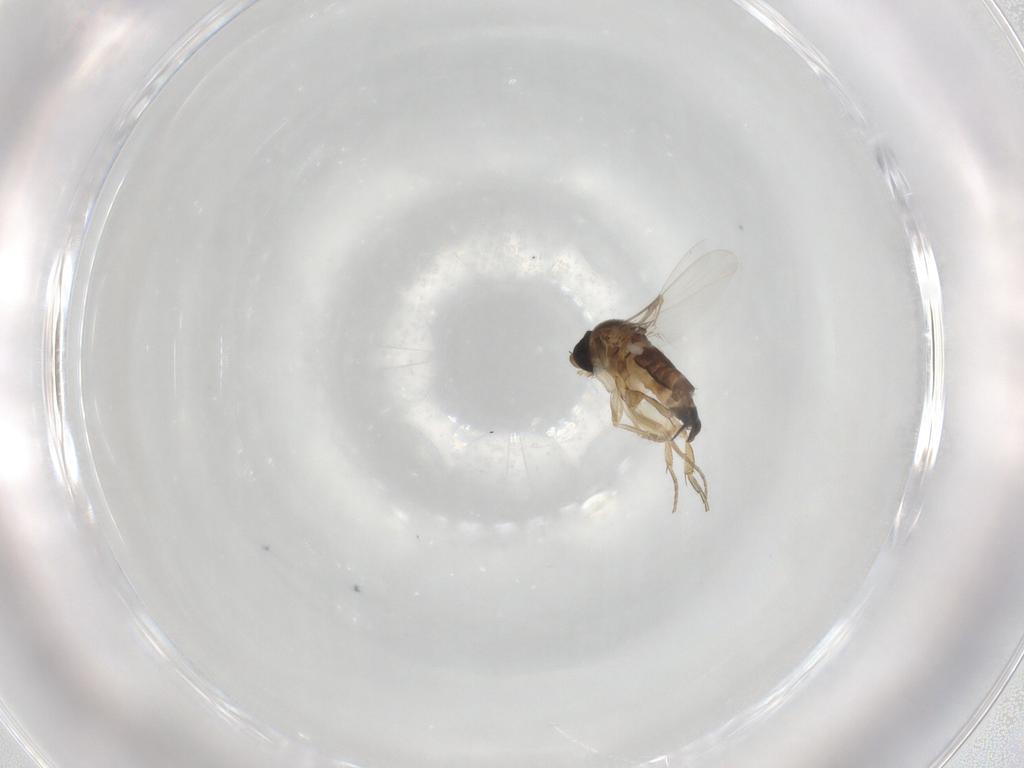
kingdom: Animalia
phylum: Arthropoda
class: Insecta
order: Diptera
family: Phoridae
